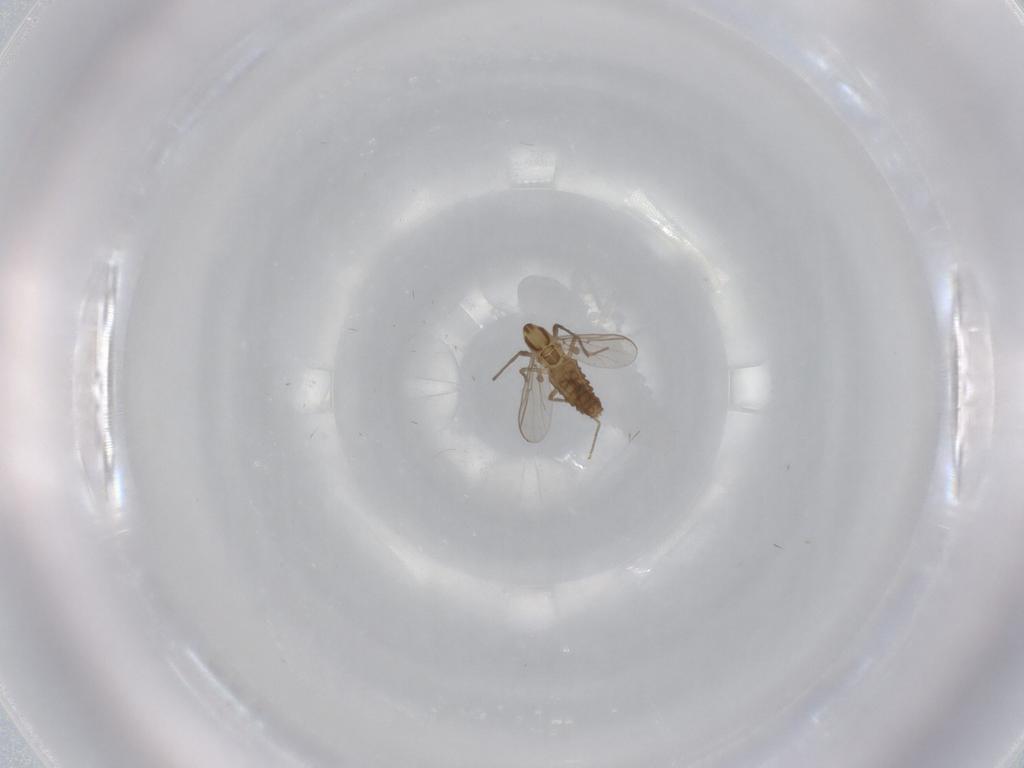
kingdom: Animalia
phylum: Arthropoda
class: Insecta
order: Diptera
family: Chironomidae
